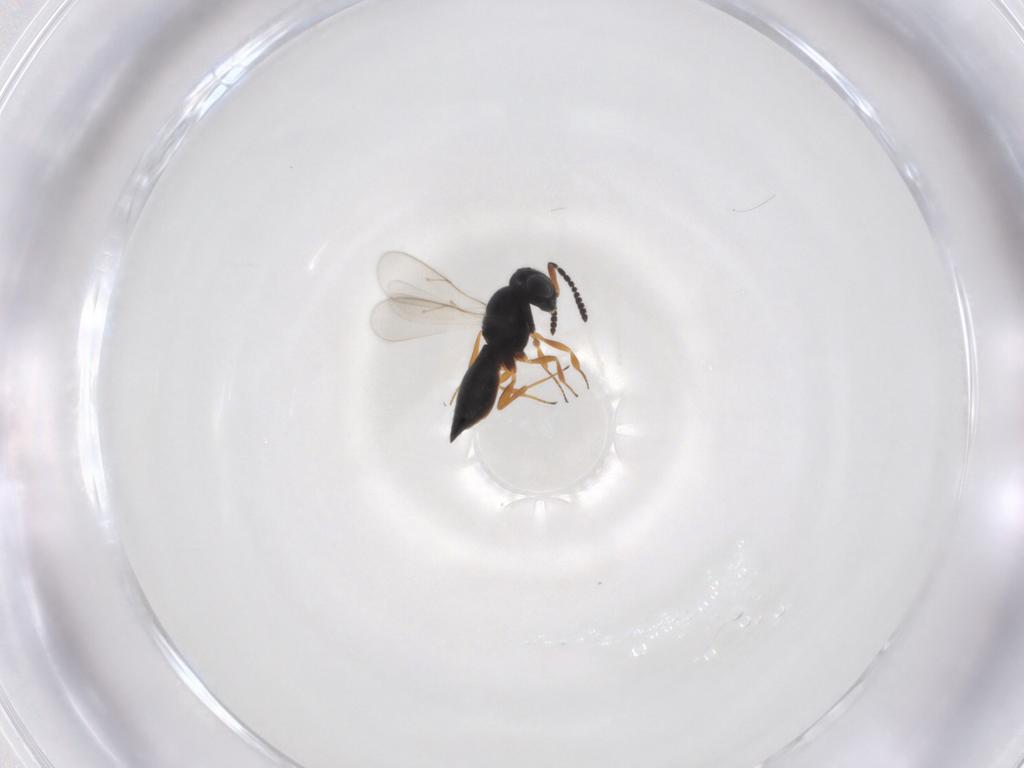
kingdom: Animalia
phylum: Arthropoda
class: Insecta
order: Hymenoptera
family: Scelionidae
